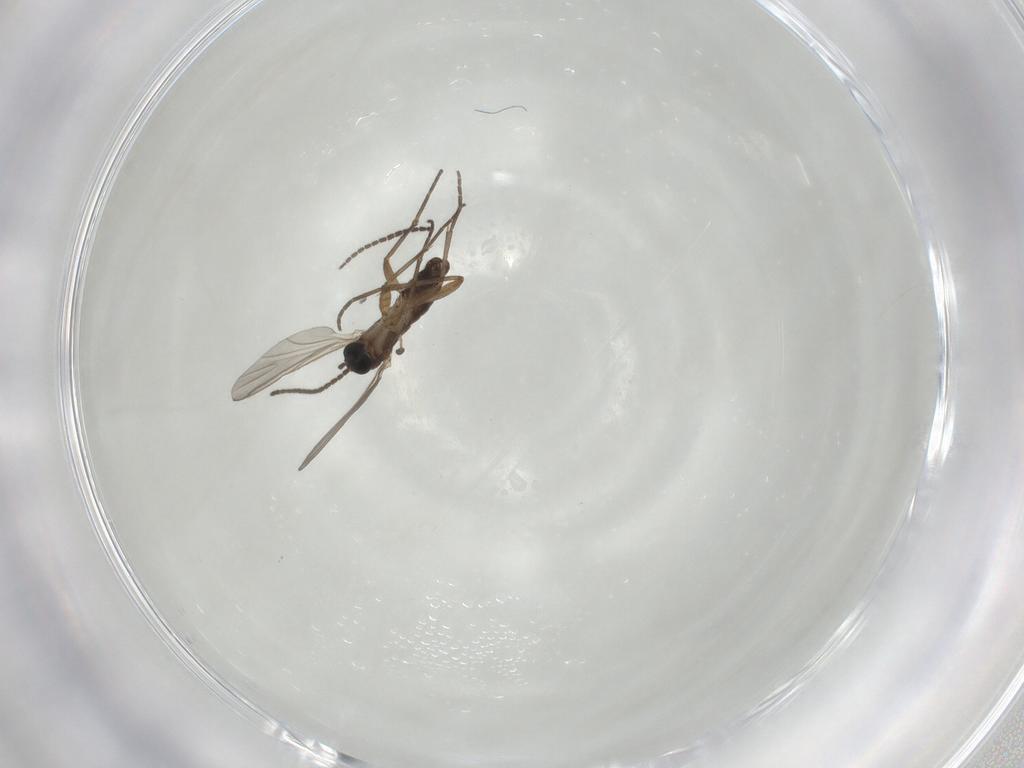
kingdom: Animalia
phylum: Arthropoda
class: Insecta
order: Diptera
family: Chironomidae
